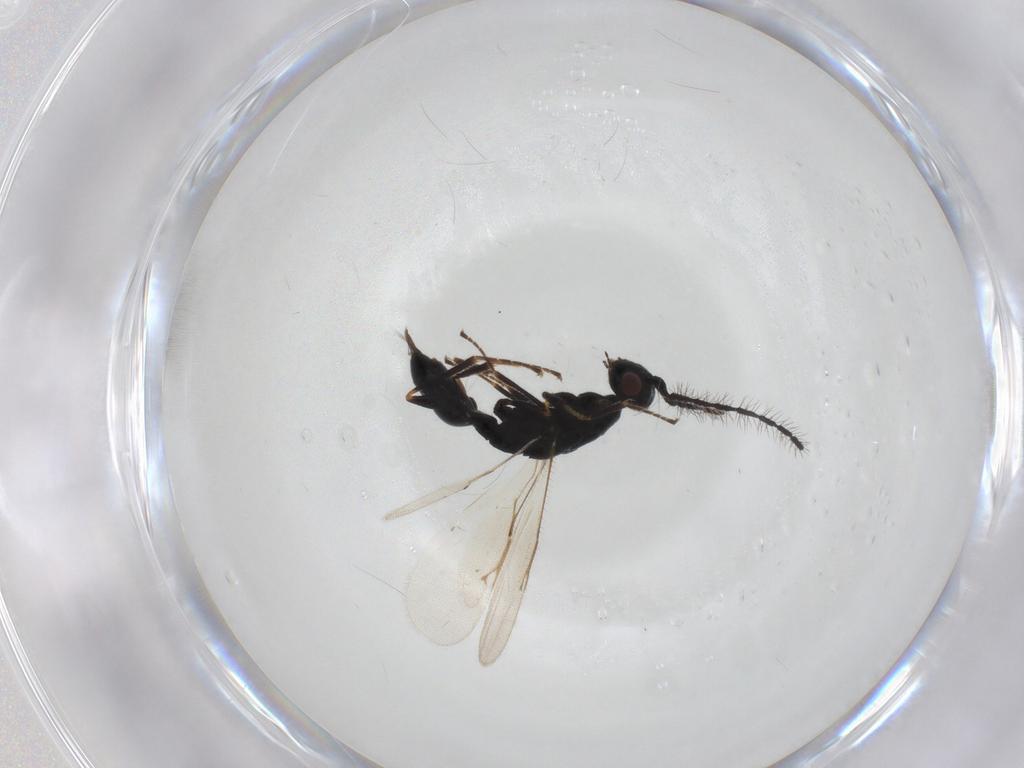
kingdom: Animalia
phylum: Arthropoda
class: Insecta
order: Hymenoptera
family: Eurytomidae
